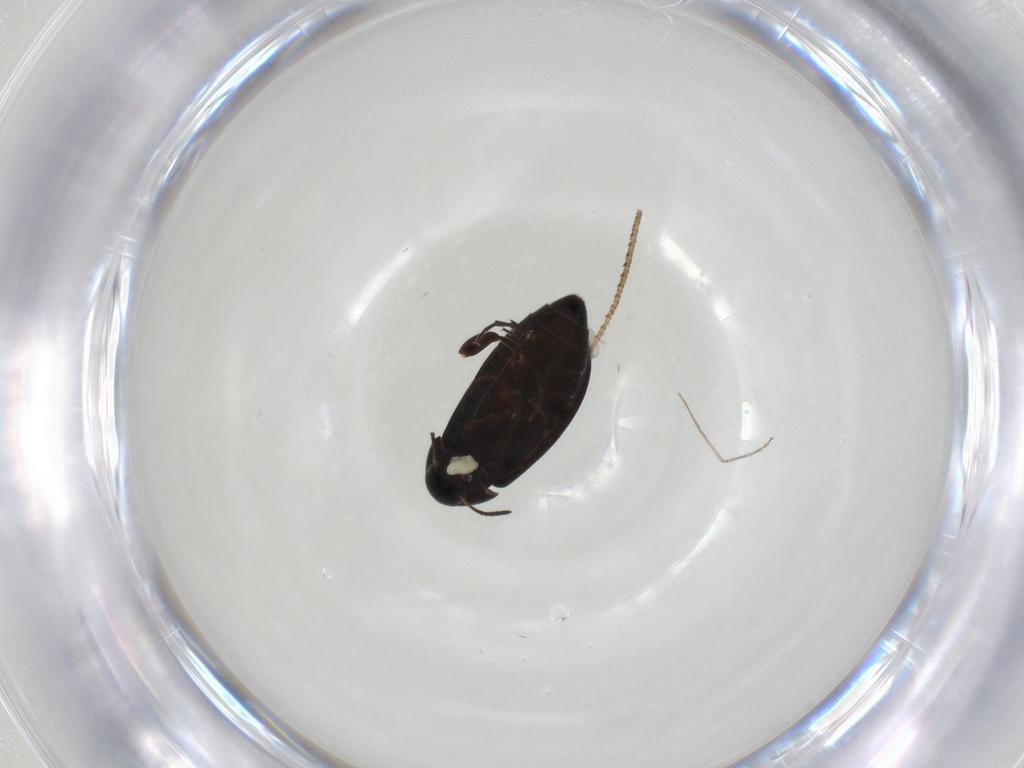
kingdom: Animalia
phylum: Arthropoda
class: Insecta
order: Coleoptera
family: Scraptiidae
